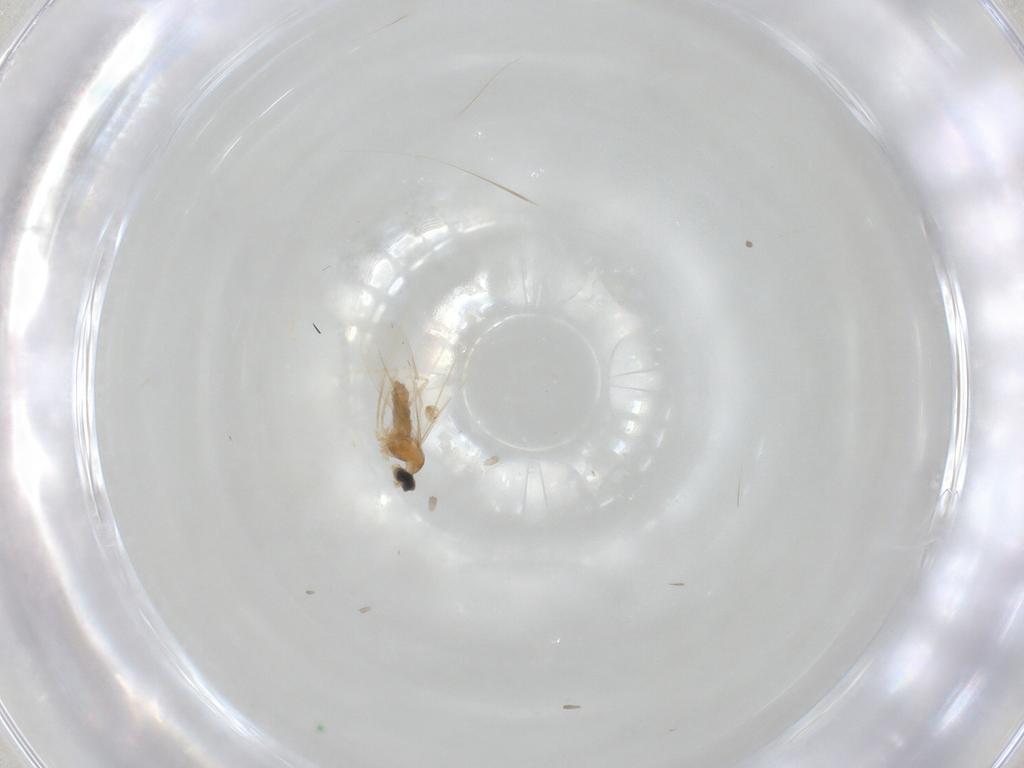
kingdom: Animalia
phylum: Arthropoda
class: Insecta
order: Diptera
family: Cecidomyiidae
